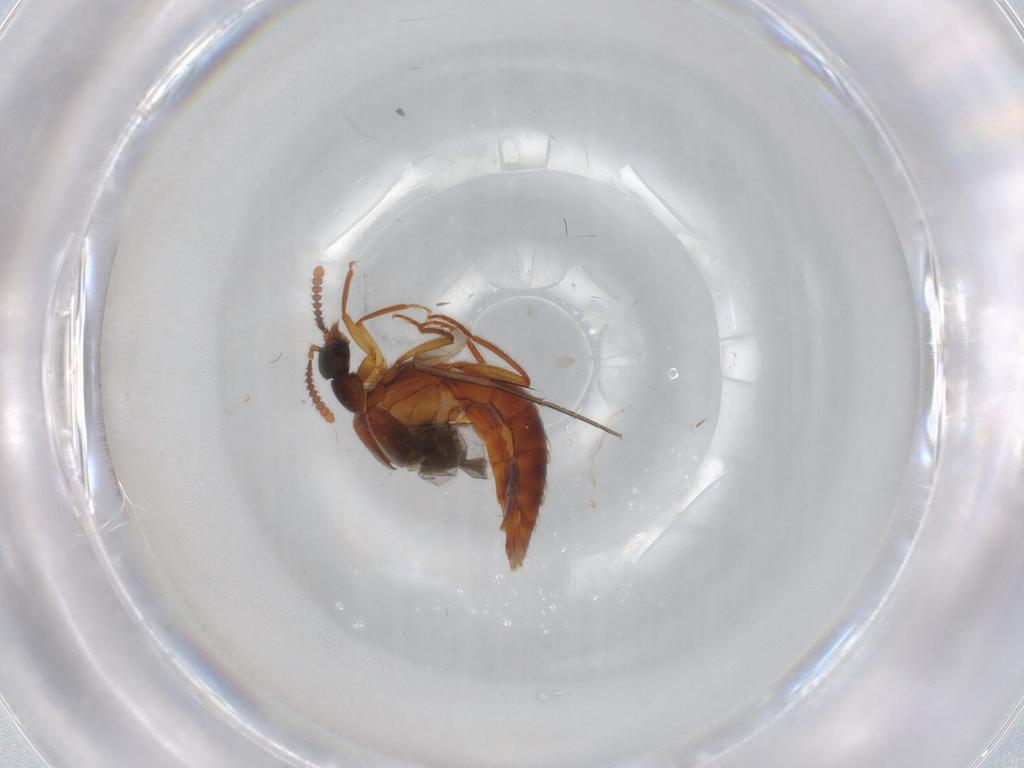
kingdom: Animalia
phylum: Arthropoda
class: Insecta
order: Coleoptera
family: Staphylinidae
